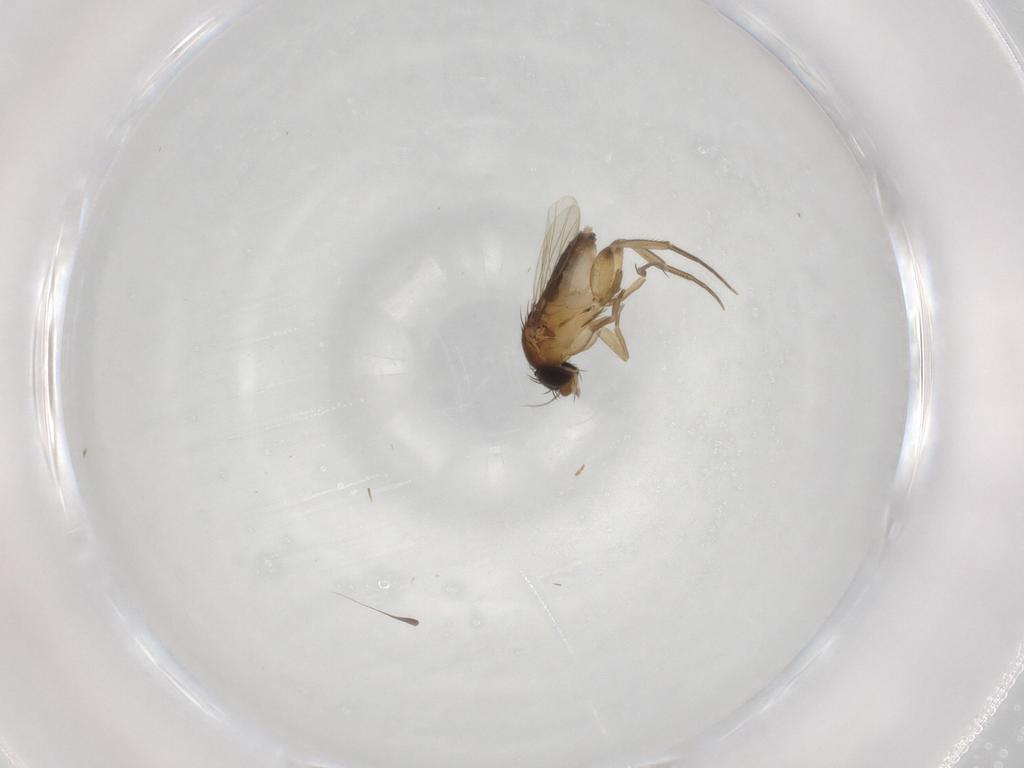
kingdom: Animalia
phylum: Arthropoda
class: Insecta
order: Diptera
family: Phoridae
